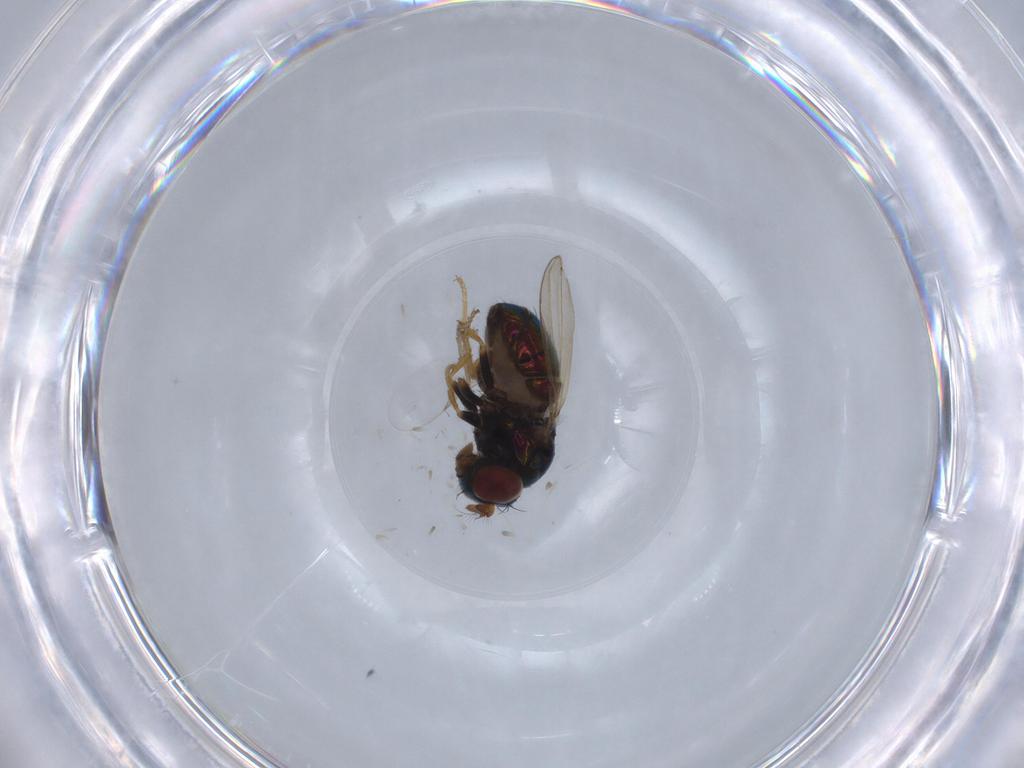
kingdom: Animalia
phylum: Arthropoda
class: Insecta
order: Diptera
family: Ephydridae
